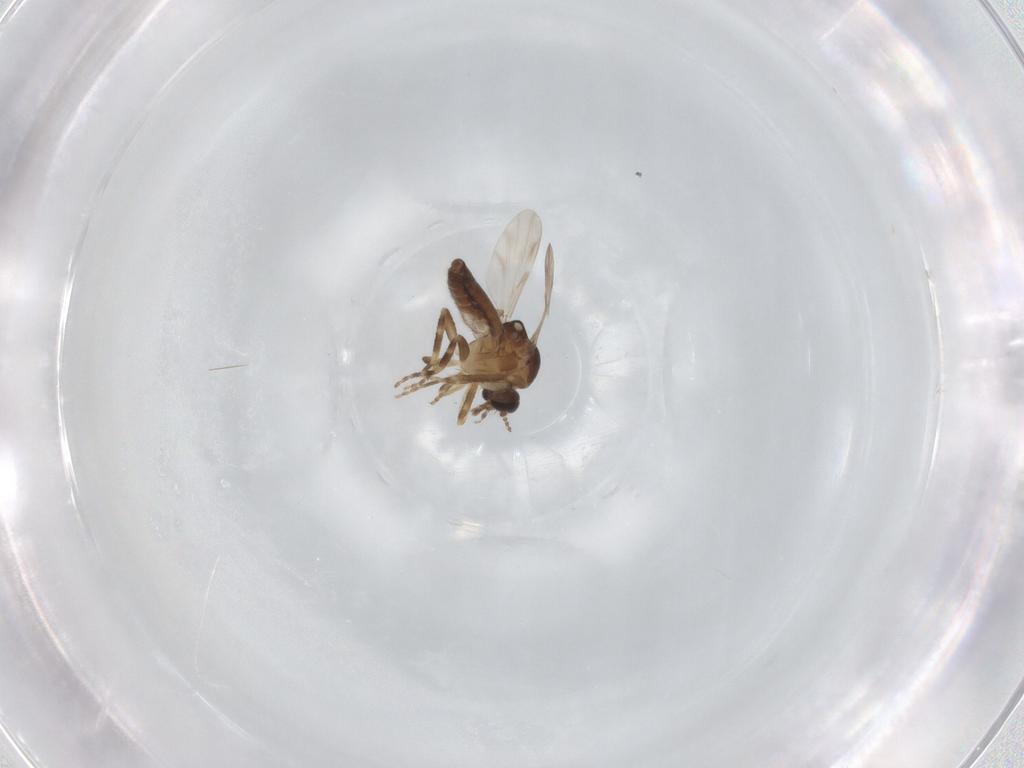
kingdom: Animalia
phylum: Arthropoda
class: Insecta
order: Diptera
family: Ceratopogonidae
